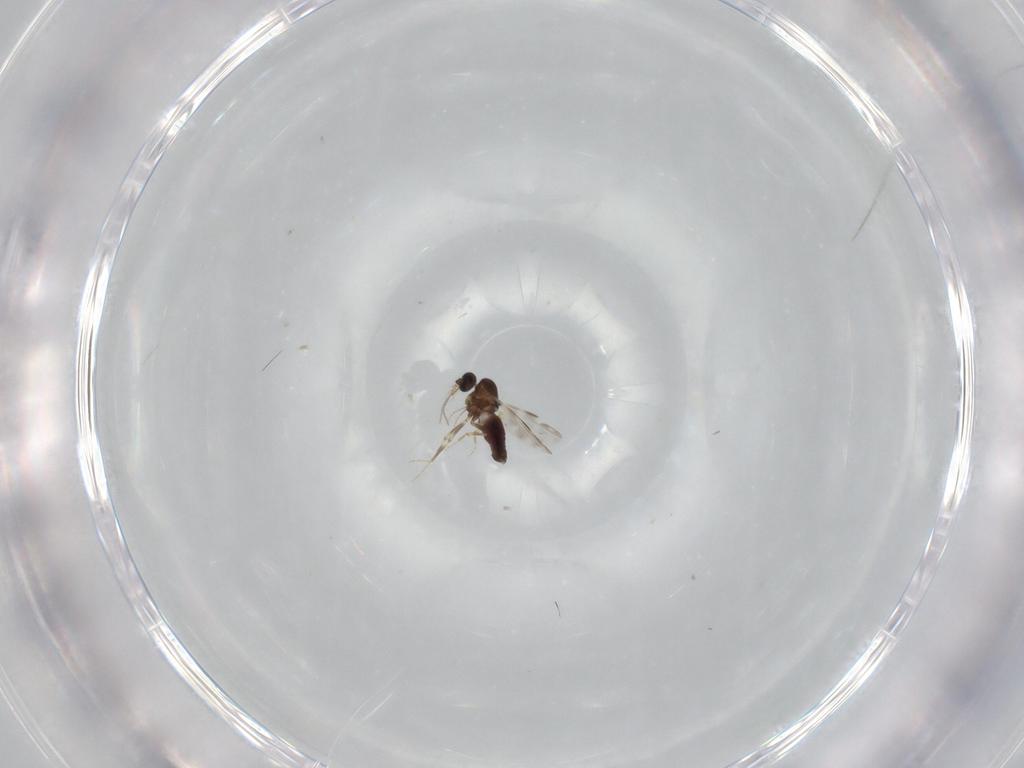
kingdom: Animalia
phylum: Arthropoda
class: Insecta
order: Diptera
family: Ceratopogonidae
